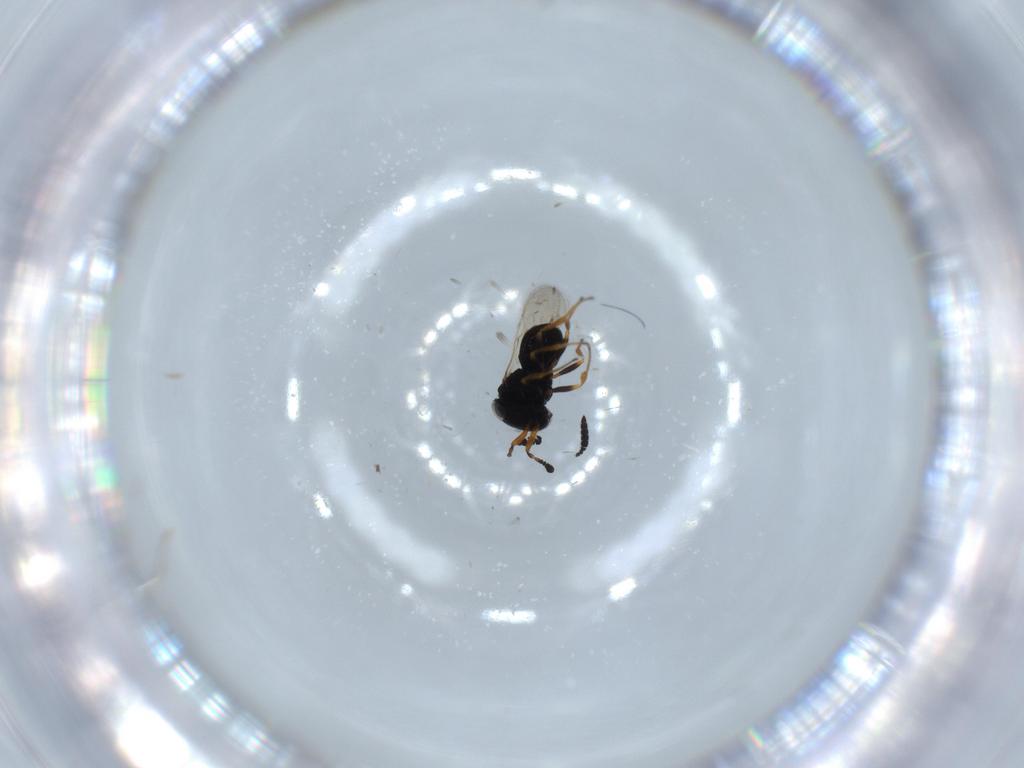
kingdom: Animalia
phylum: Arthropoda
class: Insecta
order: Hymenoptera
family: Scelionidae
